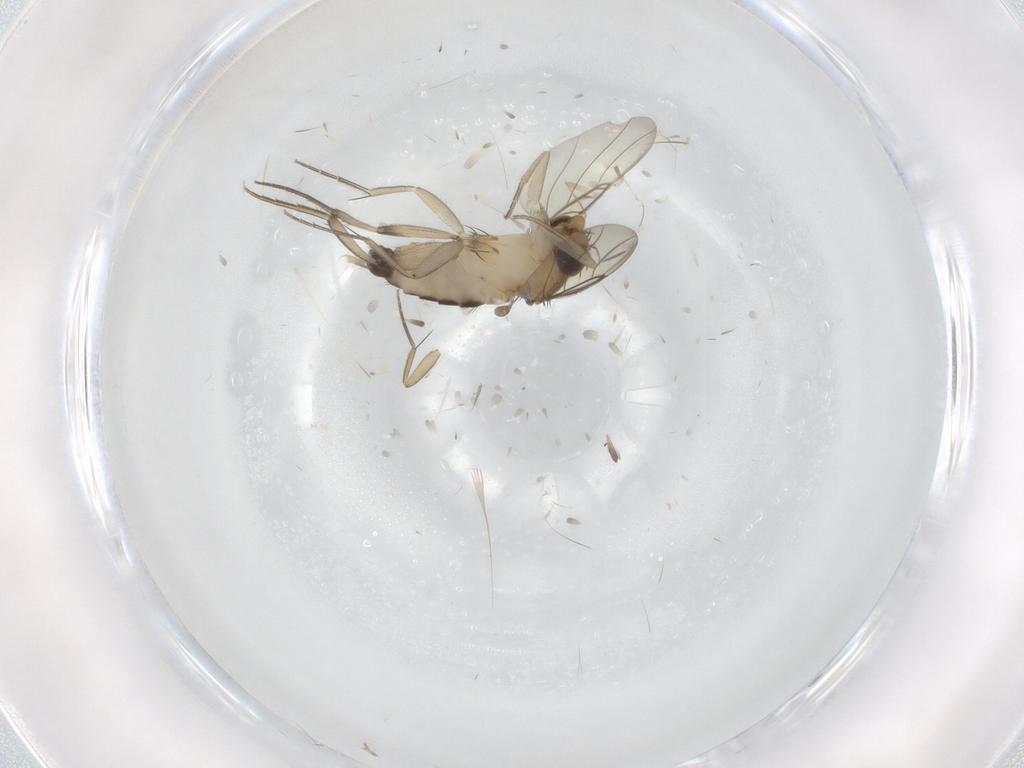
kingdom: Animalia
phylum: Arthropoda
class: Insecta
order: Diptera
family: Phoridae
